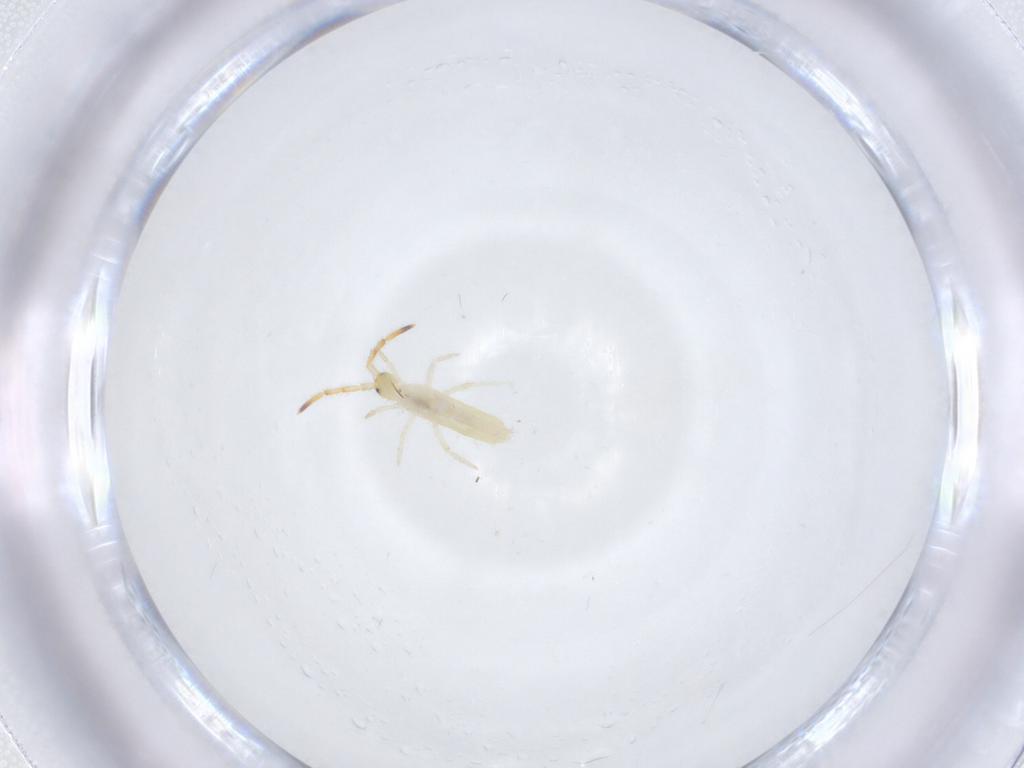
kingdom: Animalia
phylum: Arthropoda
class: Collembola
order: Entomobryomorpha
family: Entomobryidae
